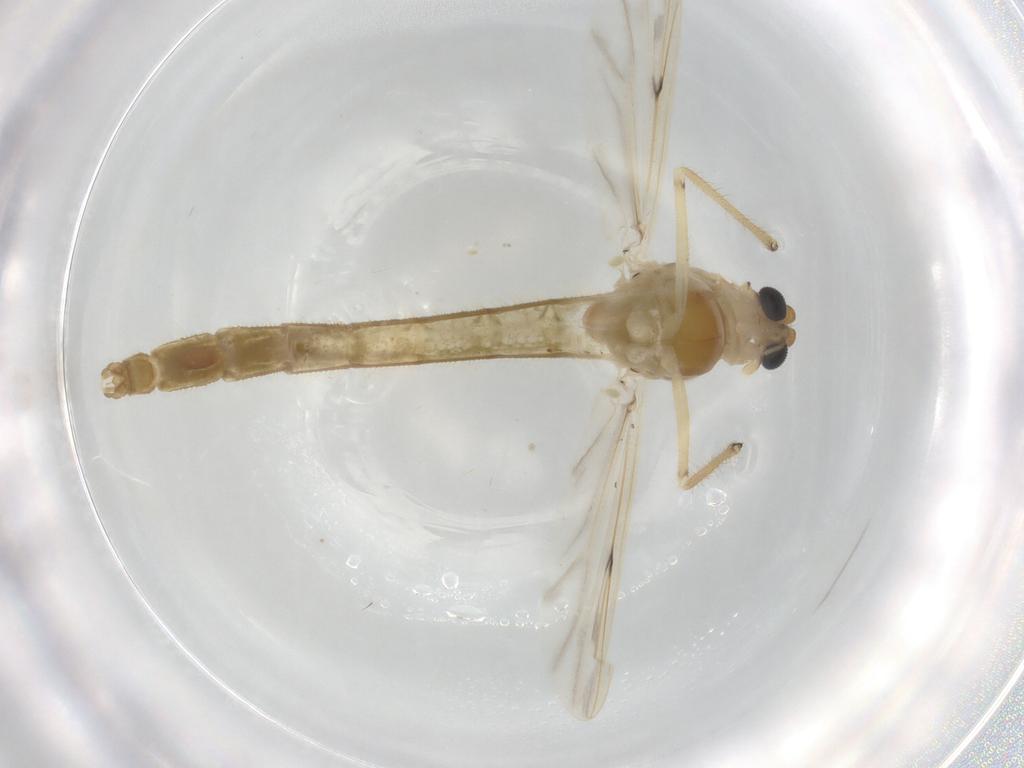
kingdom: Animalia
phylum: Arthropoda
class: Insecta
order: Diptera
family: Chironomidae
